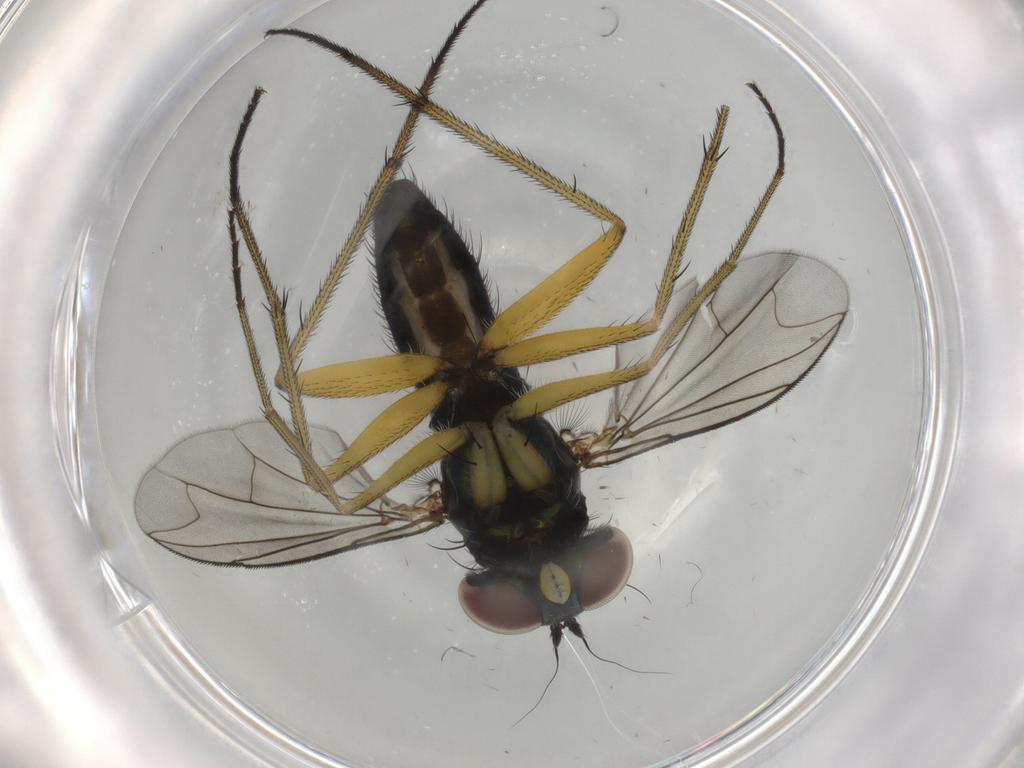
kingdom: Animalia
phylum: Arthropoda
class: Insecta
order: Diptera
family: Dolichopodidae
